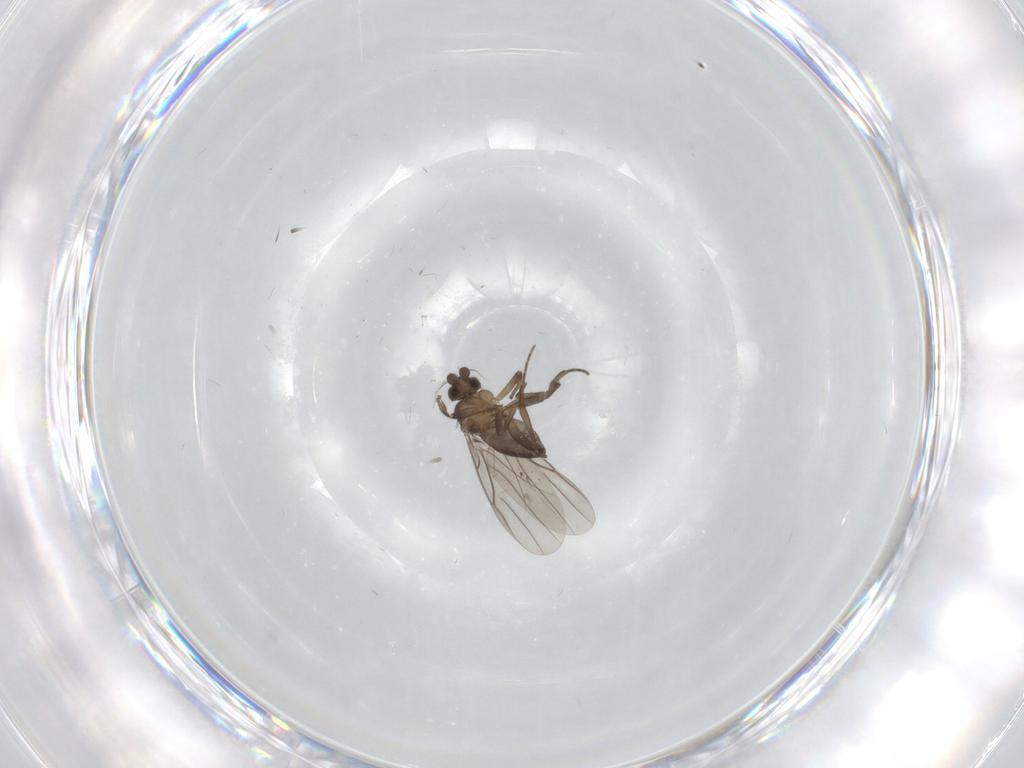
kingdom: Animalia
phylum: Arthropoda
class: Insecta
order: Diptera
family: Phoridae
